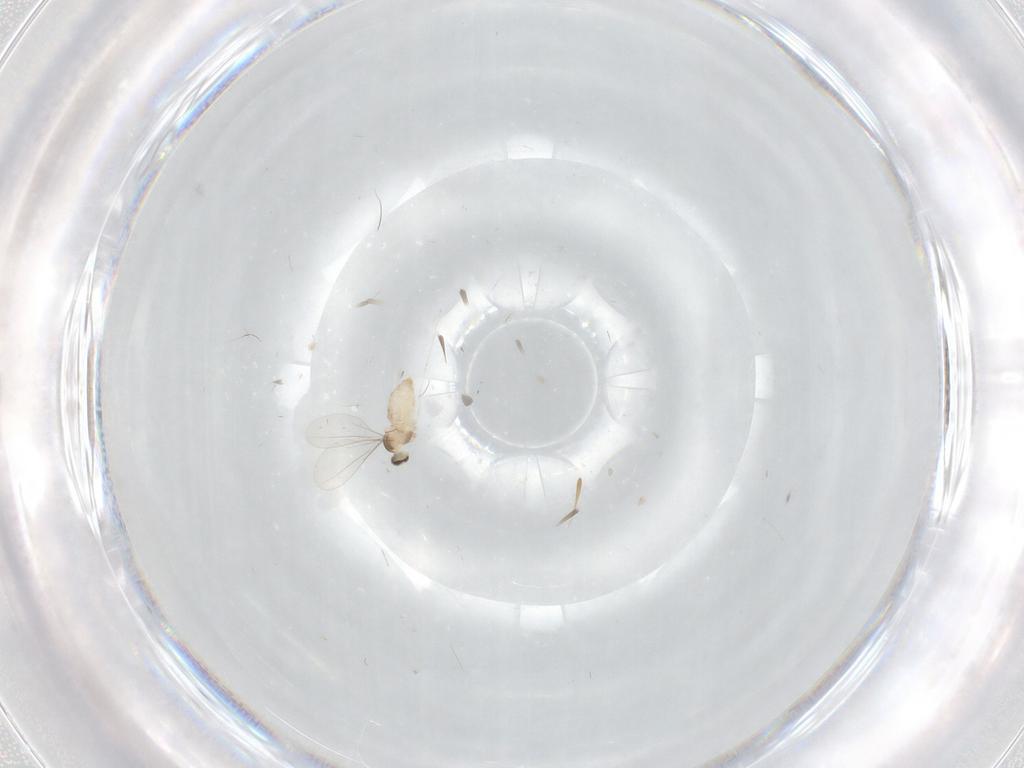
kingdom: Animalia
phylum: Arthropoda
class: Insecta
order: Diptera
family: Cecidomyiidae
